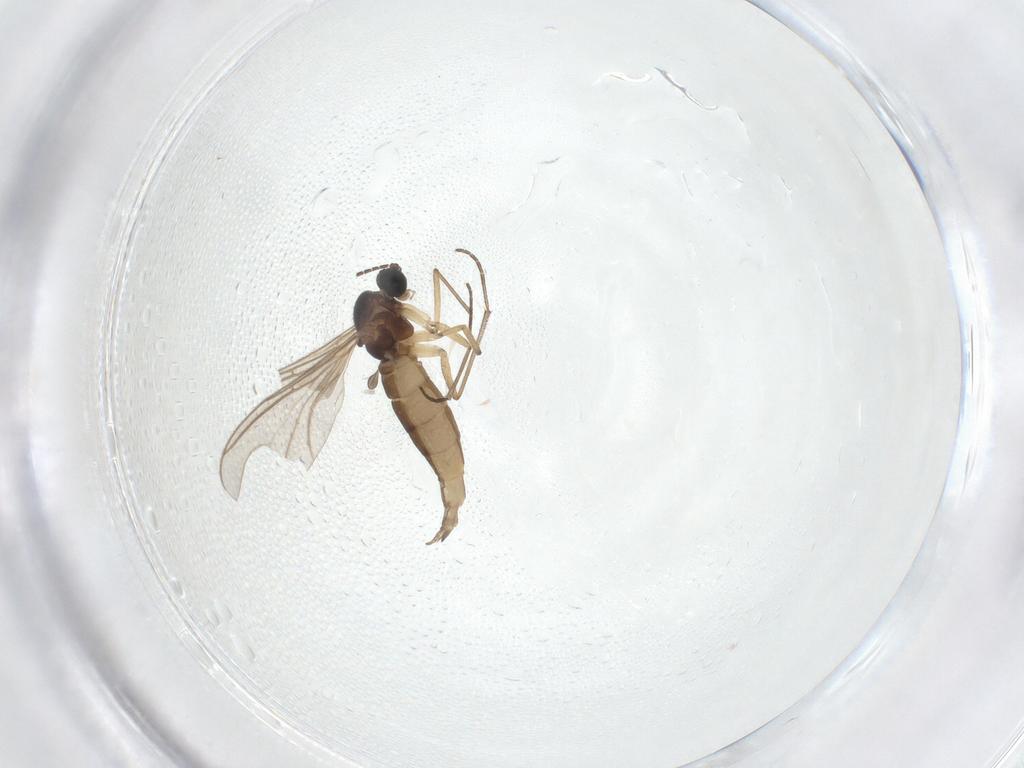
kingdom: Animalia
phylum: Arthropoda
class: Insecta
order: Diptera
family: Sciaridae
